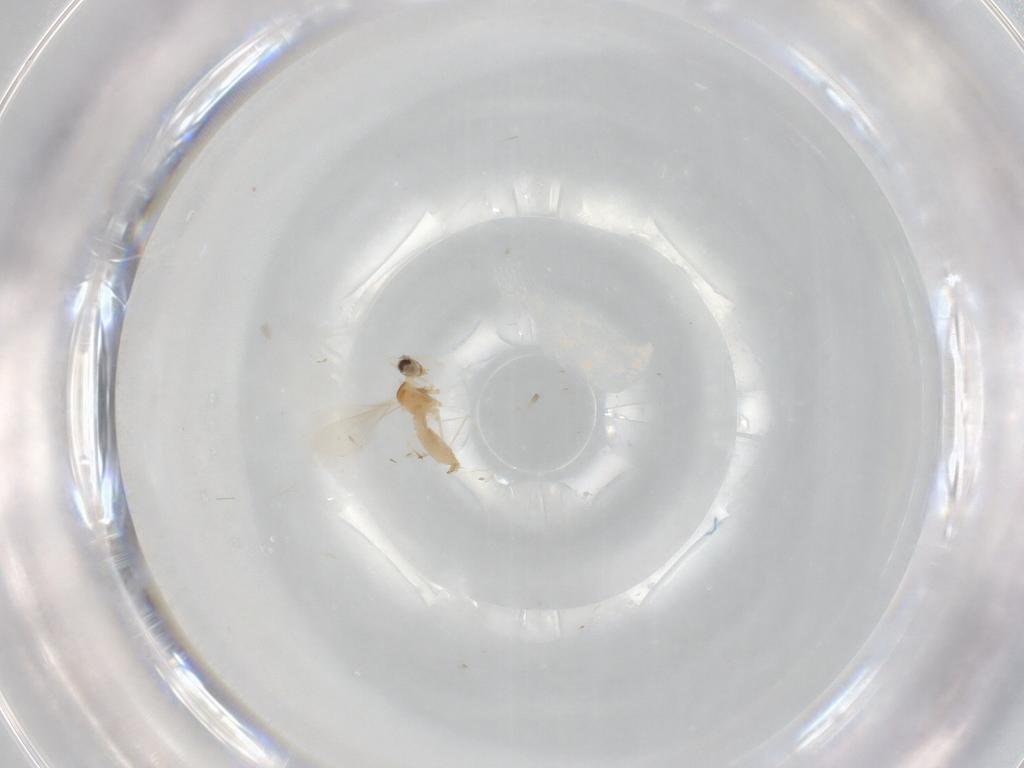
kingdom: Animalia
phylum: Arthropoda
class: Insecta
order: Diptera
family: Cecidomyiidae
